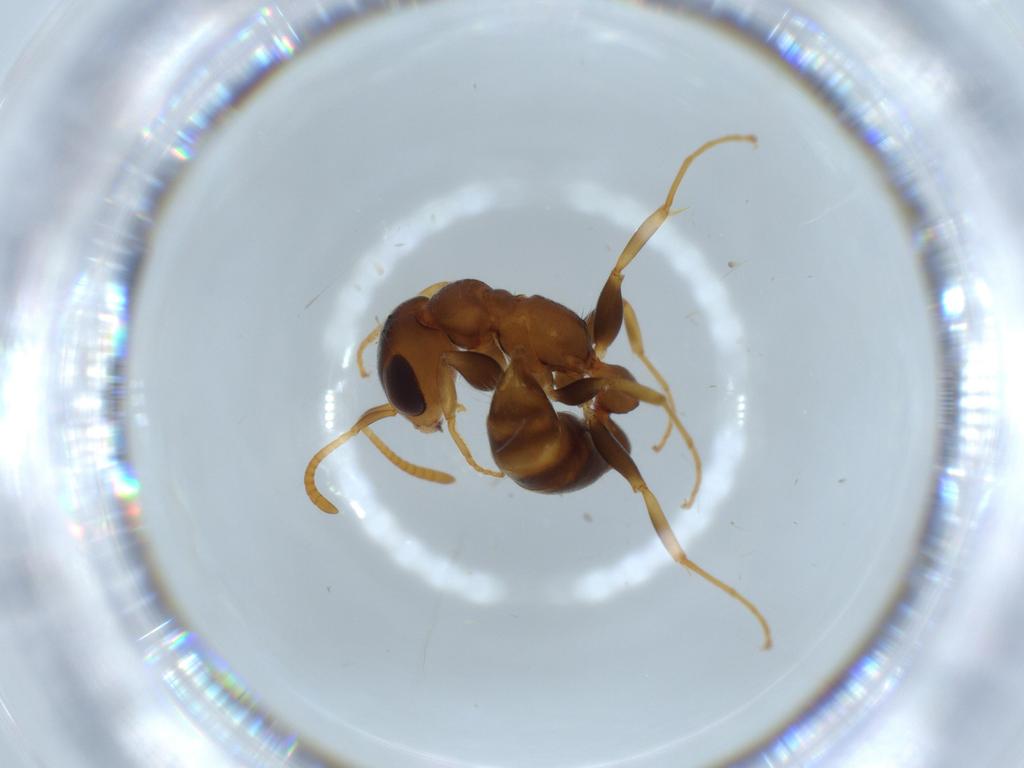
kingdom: Animalia
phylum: Arthropoda
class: Insecta
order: Hymenoptera
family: Formicidae
